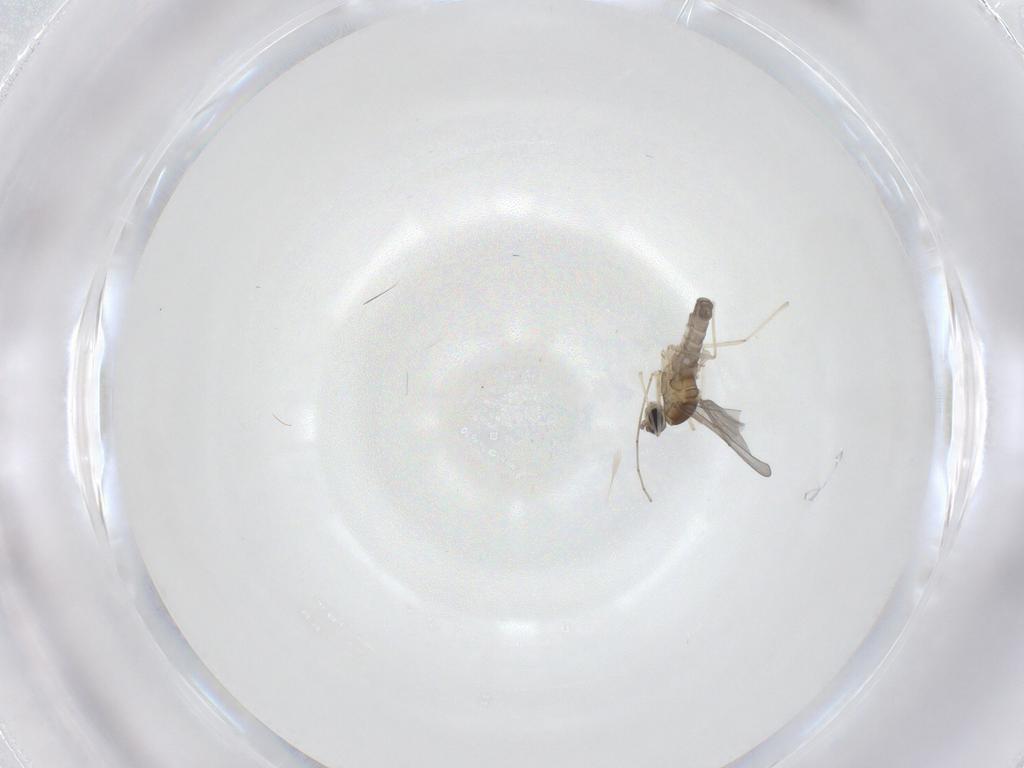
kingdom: Animalia
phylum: Arthropoda
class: Insecta
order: Diptera
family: Cecidomyiidae
